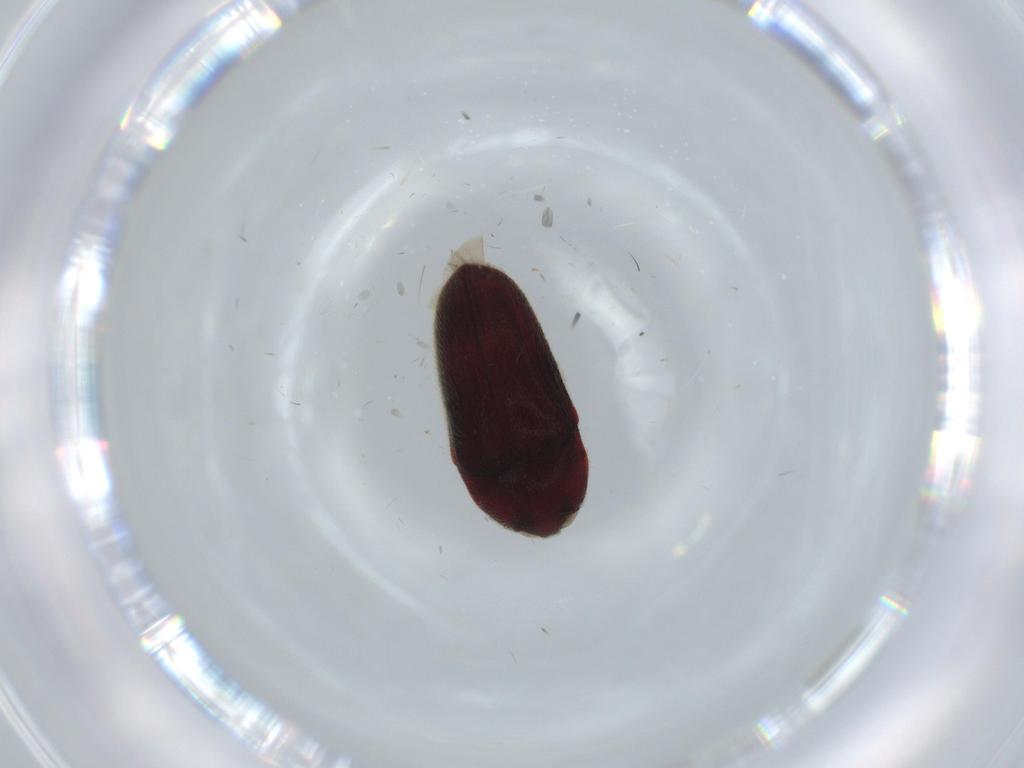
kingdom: Animalia
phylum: Arthropoda
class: Insecta
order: Coleoptera
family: Throscidae
